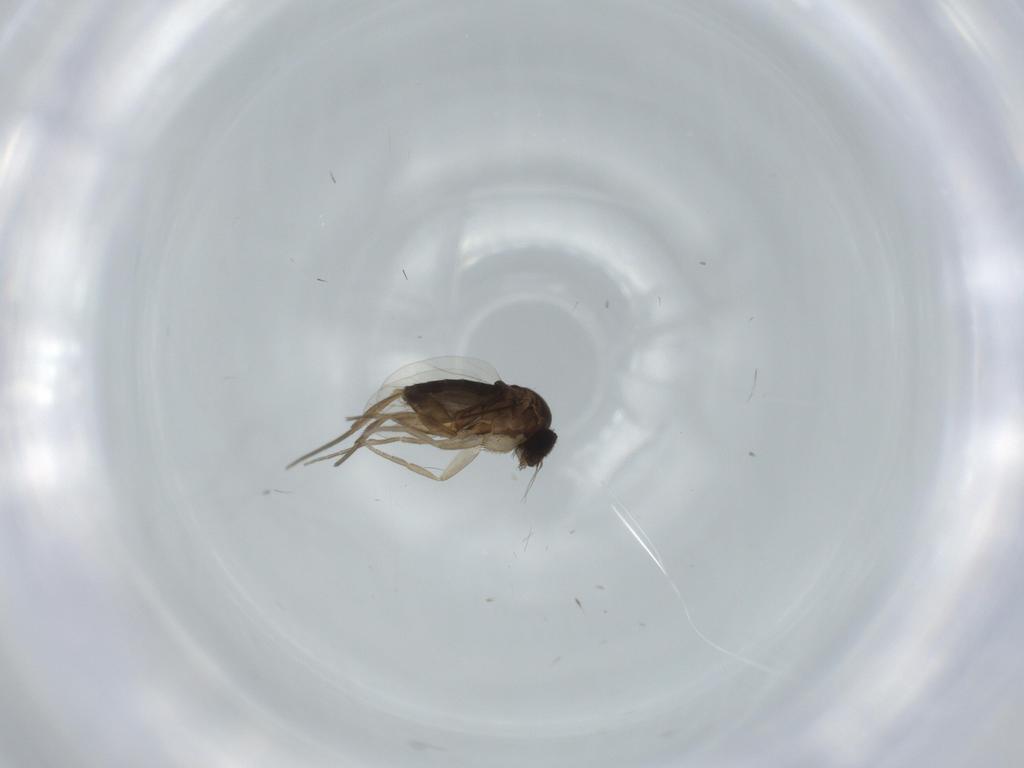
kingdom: Animalia
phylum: Arthropoda
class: Insecta
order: Diptera
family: Phoridae
